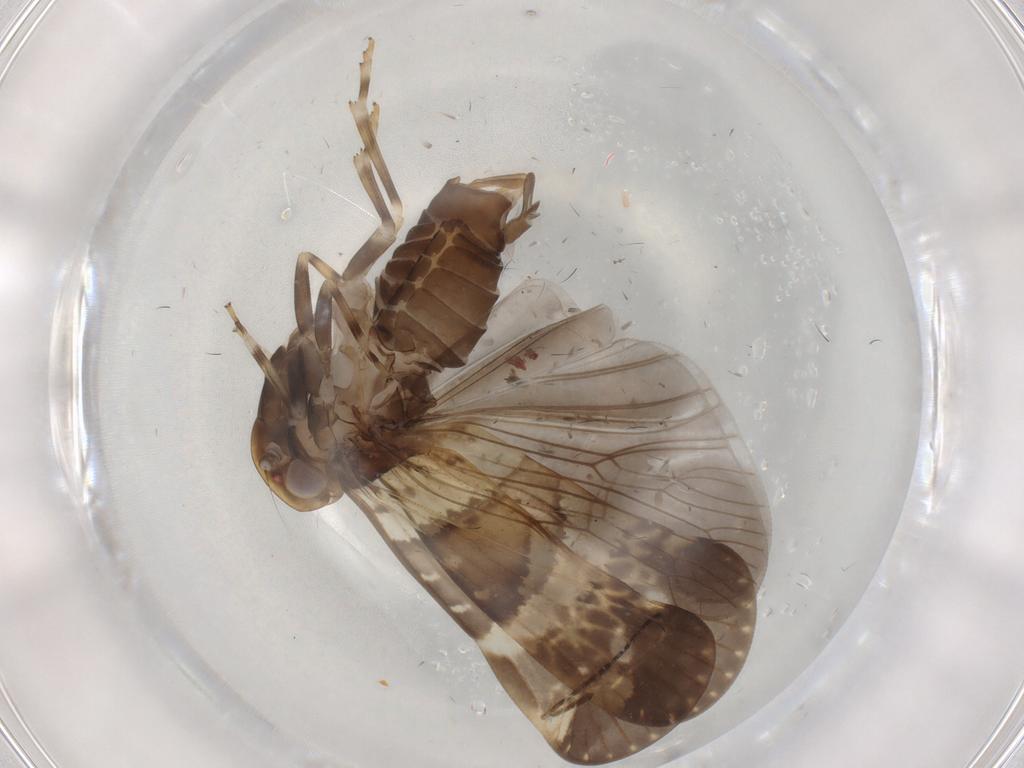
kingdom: Animalia
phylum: Arthropoda
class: Insecta
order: Hemiptera
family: Cixiidae
